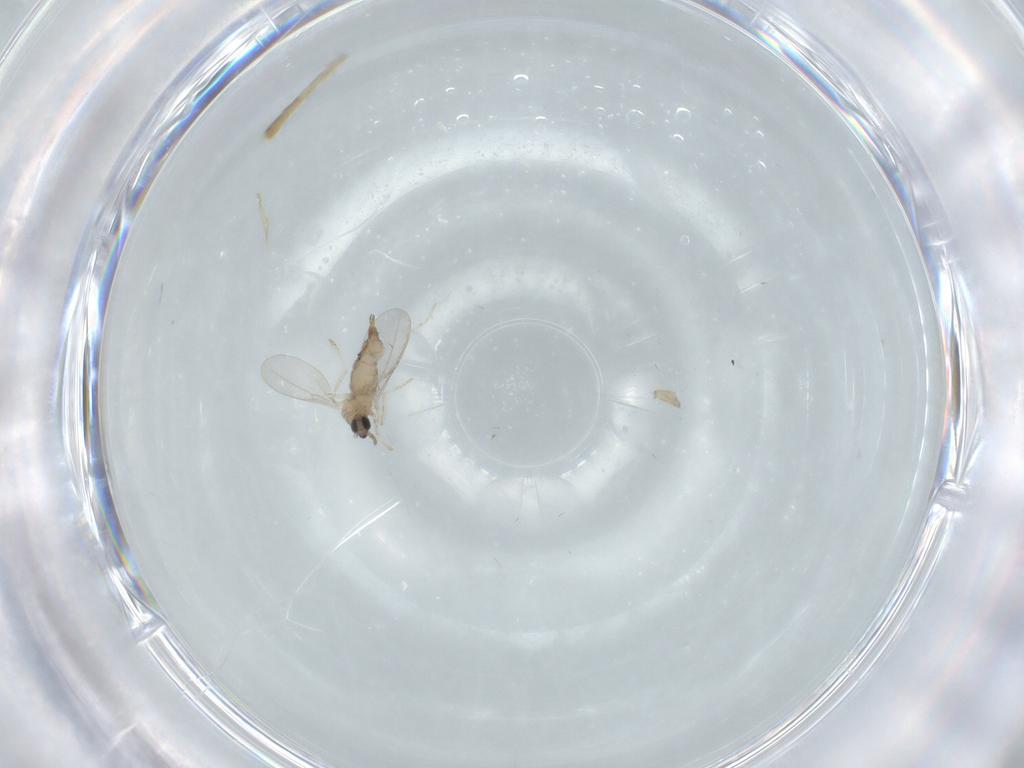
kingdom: Animalia
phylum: Arthropoda
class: Insecta
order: Diptera
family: Cecidomyiidae
